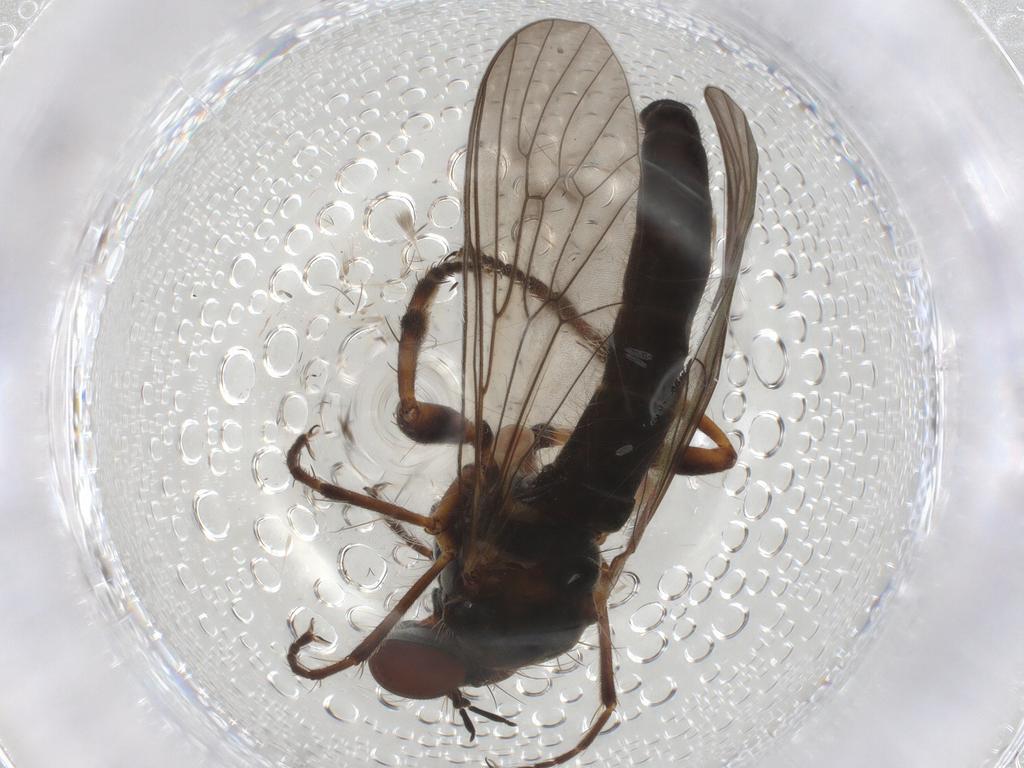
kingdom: Animalia
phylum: Arthropoda
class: Insecta
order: Diptera
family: Asilidae
